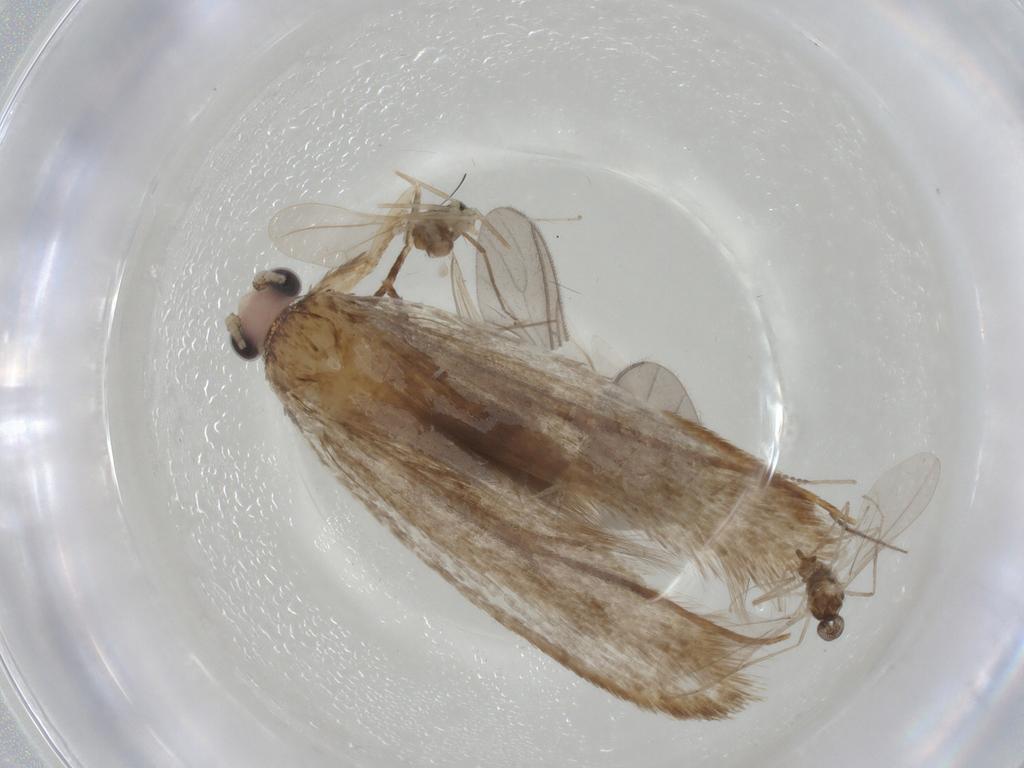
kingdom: Animalia
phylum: Arthropoda
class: Insecta
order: Lepidoptera
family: Tineidae
